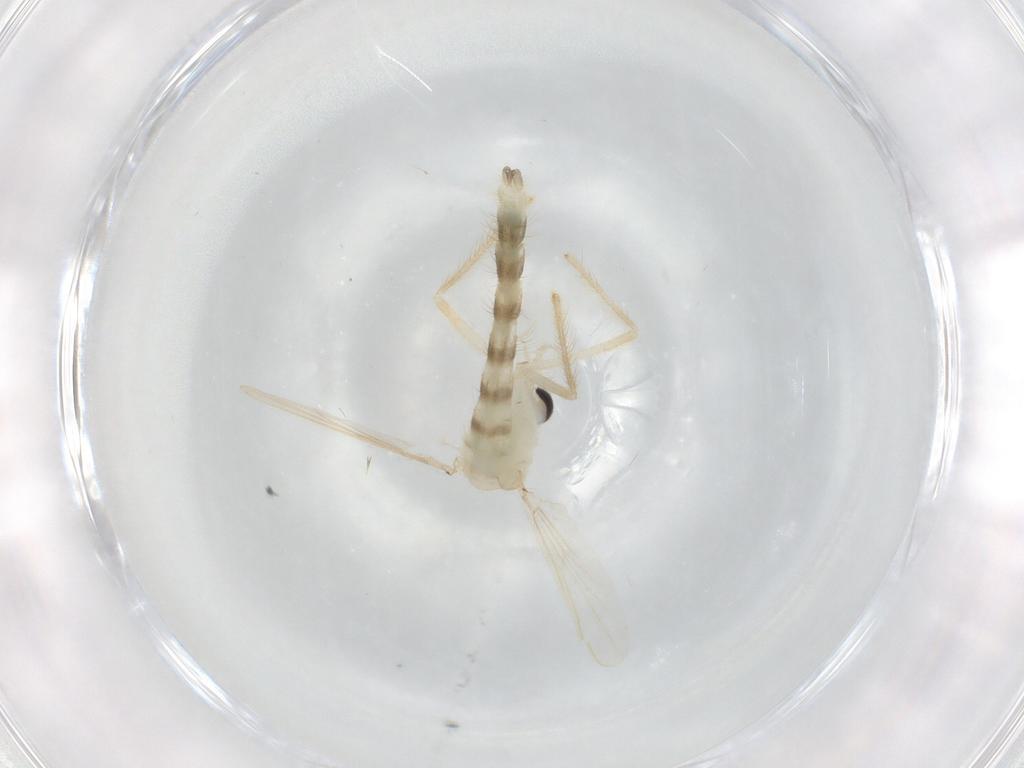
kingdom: Animalia
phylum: Arthropoda
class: Insecta
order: Diptera
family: Chironomidae
